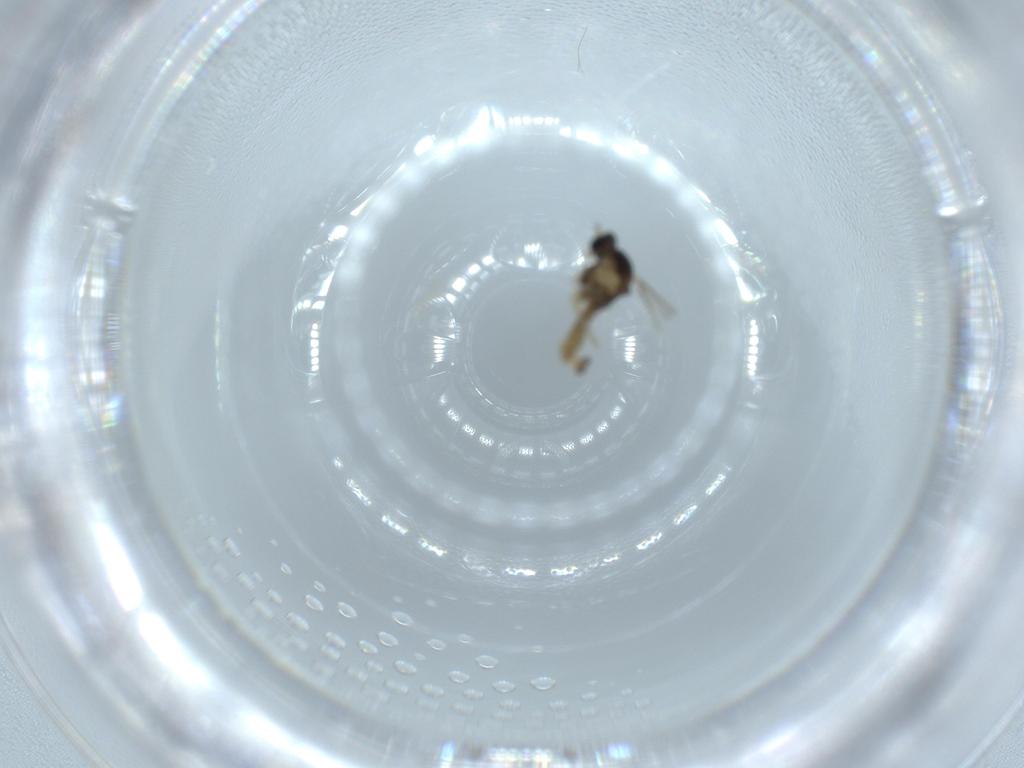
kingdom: Animalia
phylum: Arthropoda
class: Insecta
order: Diptera
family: Cecidomyiidae
